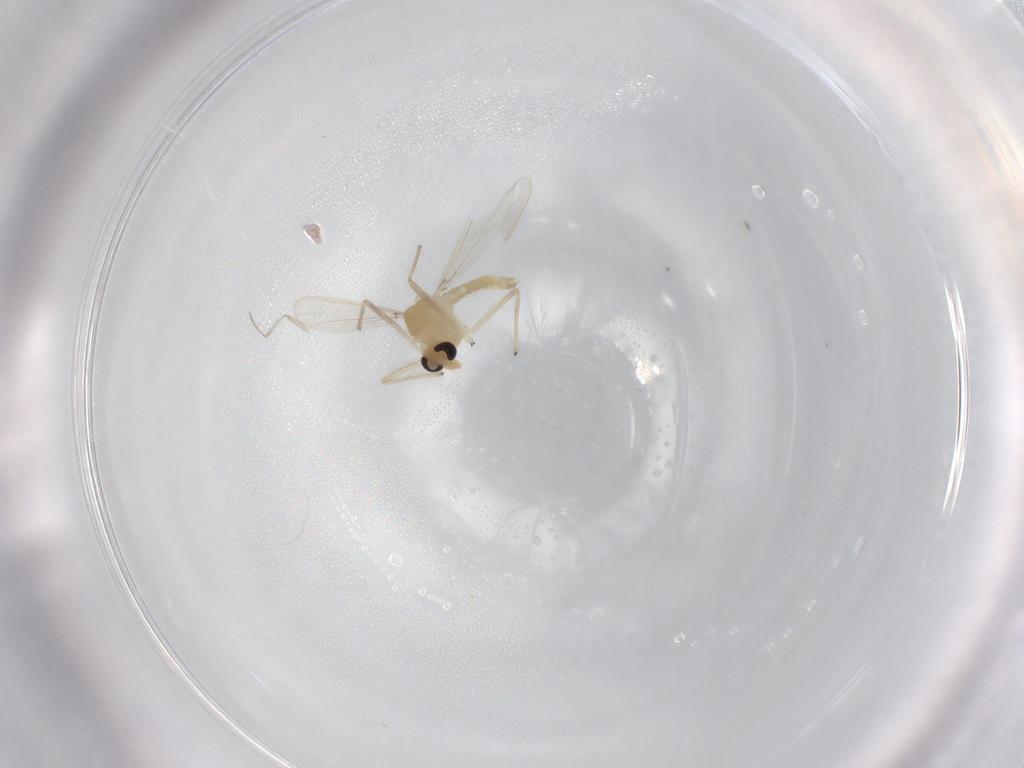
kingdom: Animalia
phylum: Arthropoda
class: Insecta
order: Diptera
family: Chironomidae
